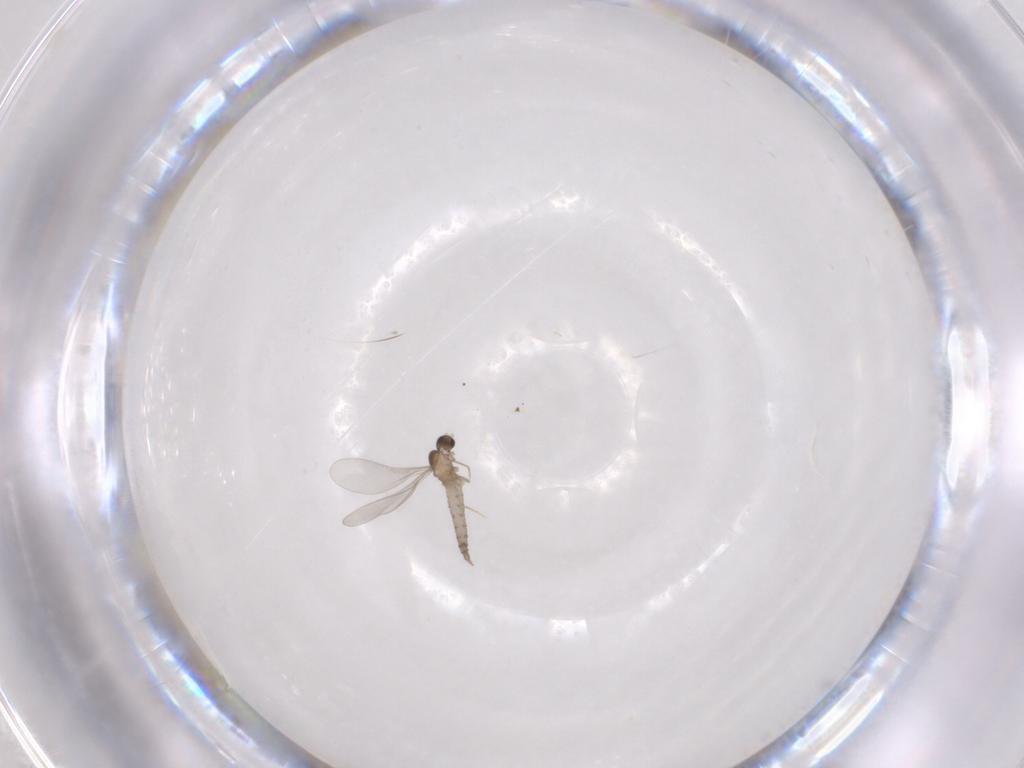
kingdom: Animalia
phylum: Arthropoda
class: Insecta
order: Diptera
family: Cecidomyiidae
